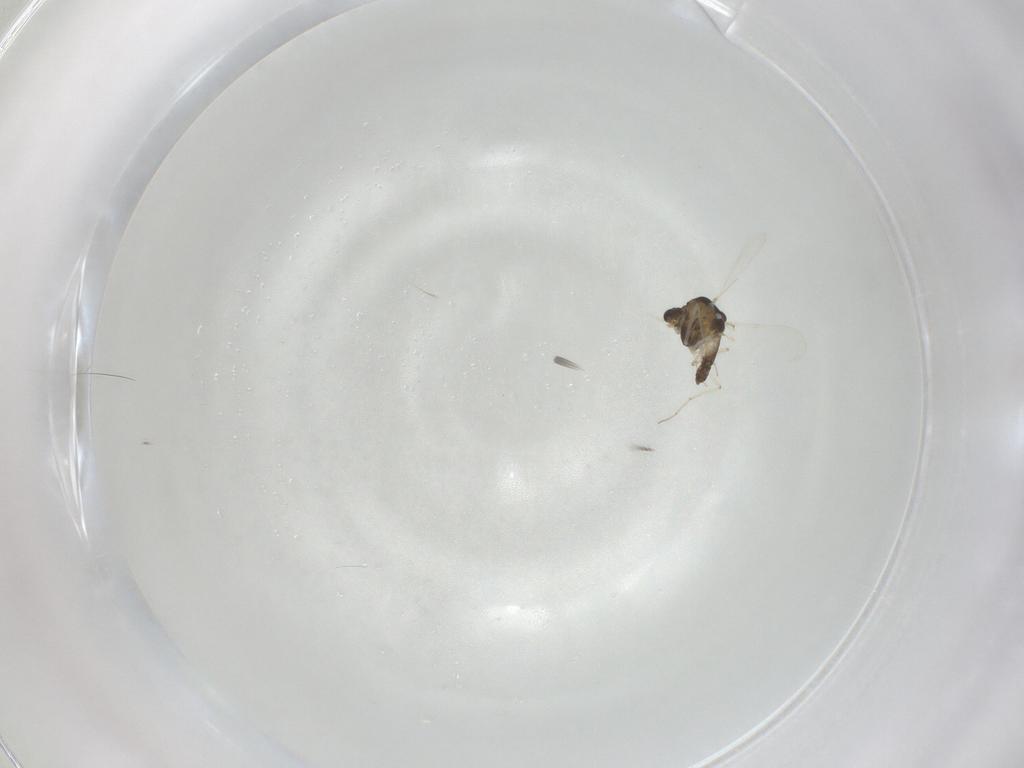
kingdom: Animalia
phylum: Arthropoda
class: Insecta
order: Diptera
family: Chironomidae
